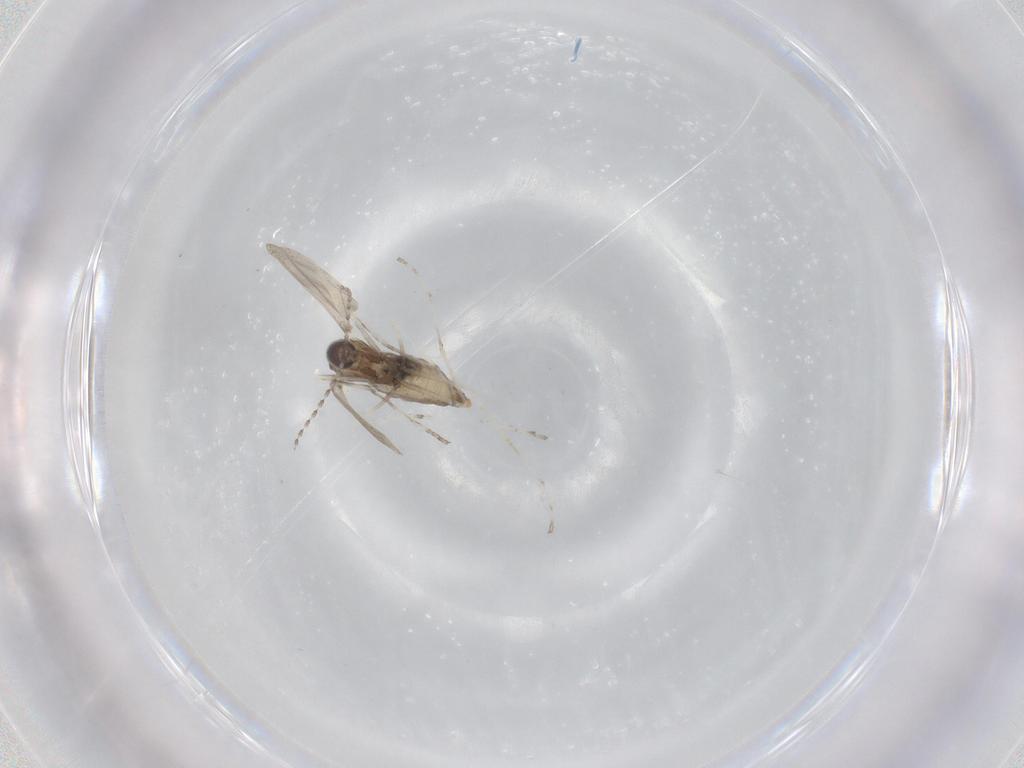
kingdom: Animalia
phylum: Arthropoda
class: Insecta
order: Diptera
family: Cecidomyiidae
